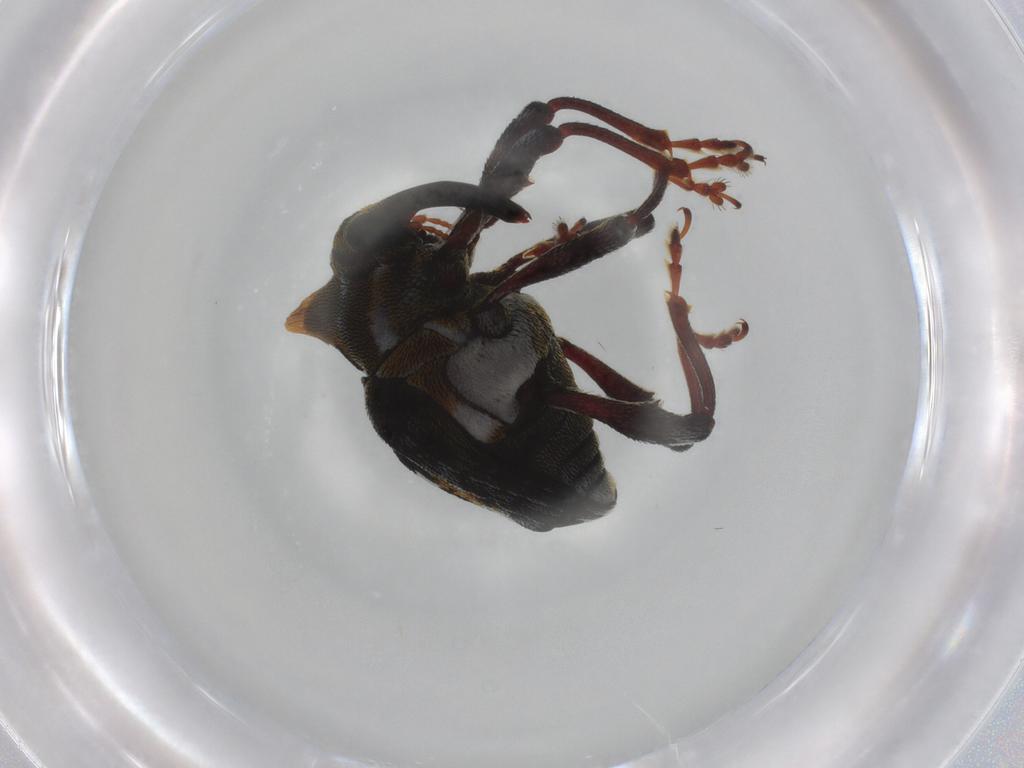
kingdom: Animalia
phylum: Arthropoda
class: Insecta
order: Coleoptera
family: Curculionidae
